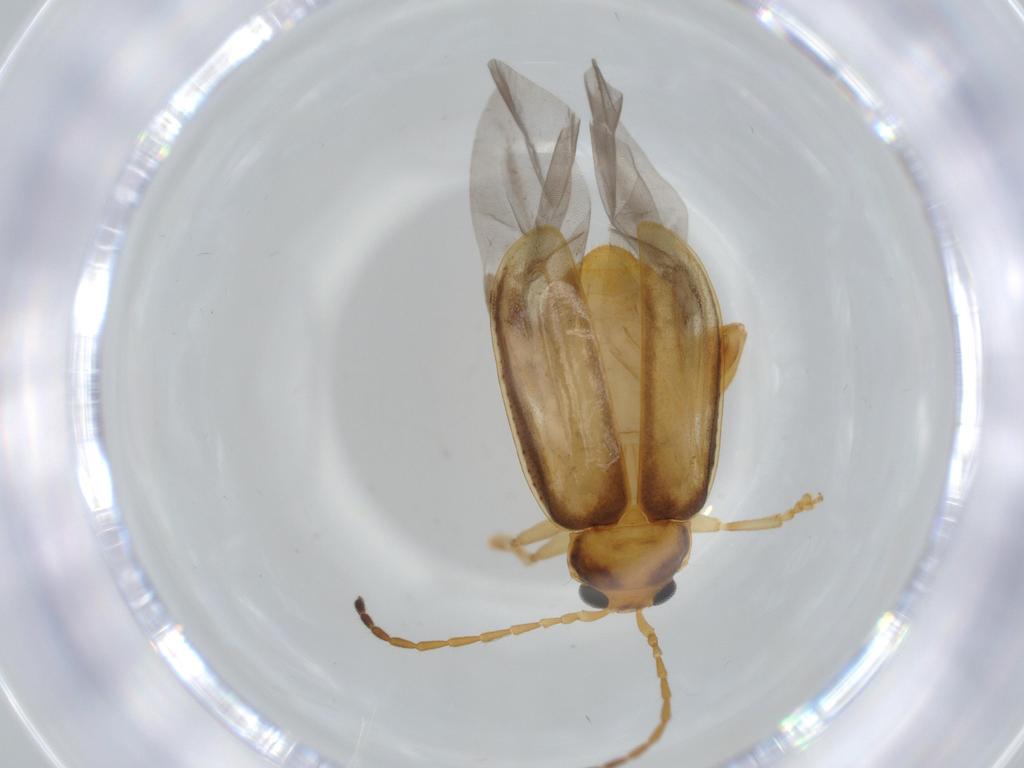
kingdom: Animalia
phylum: Arthropoda
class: Insecta
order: Coleoptera
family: Chrysomelidae
